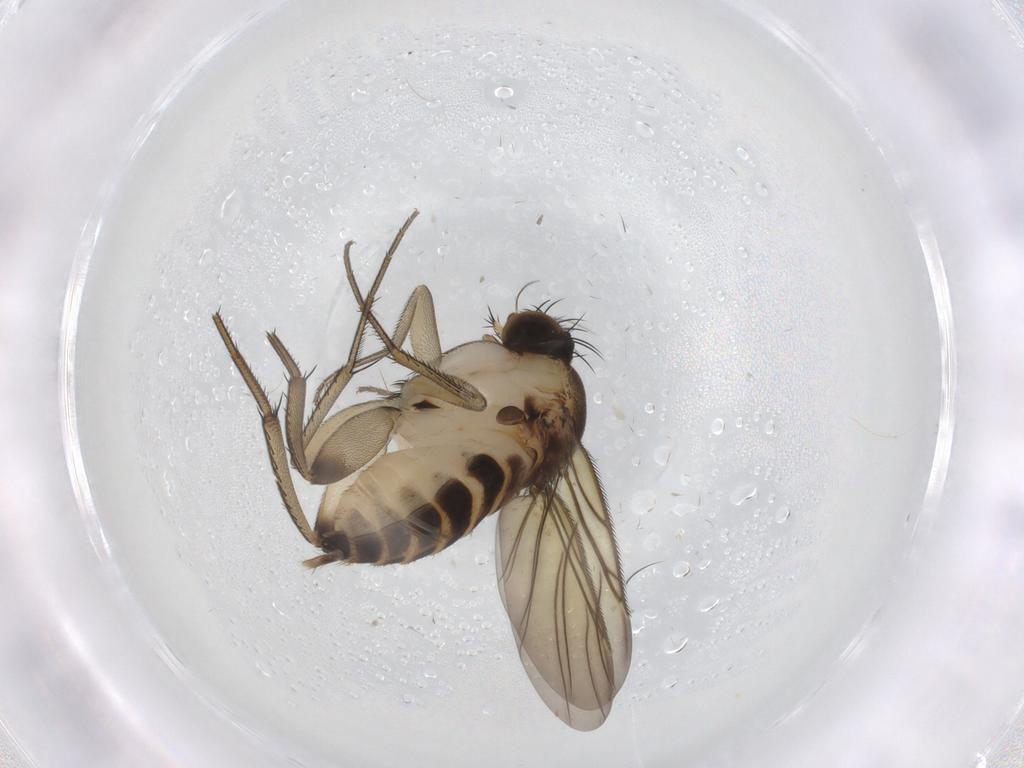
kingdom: Animalia
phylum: Arthropoda
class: Insecta
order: Diptera
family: Phoridae
